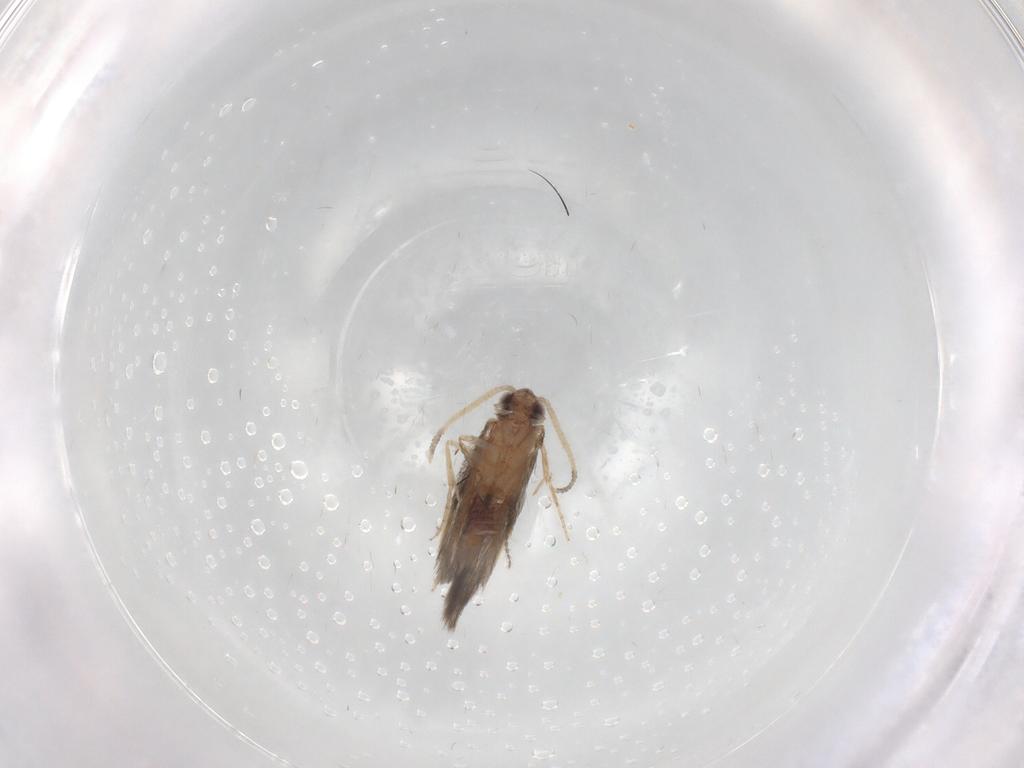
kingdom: Animalia
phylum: Arthropoda
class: Insecta
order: Trichoptera
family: Hydroptilidae
